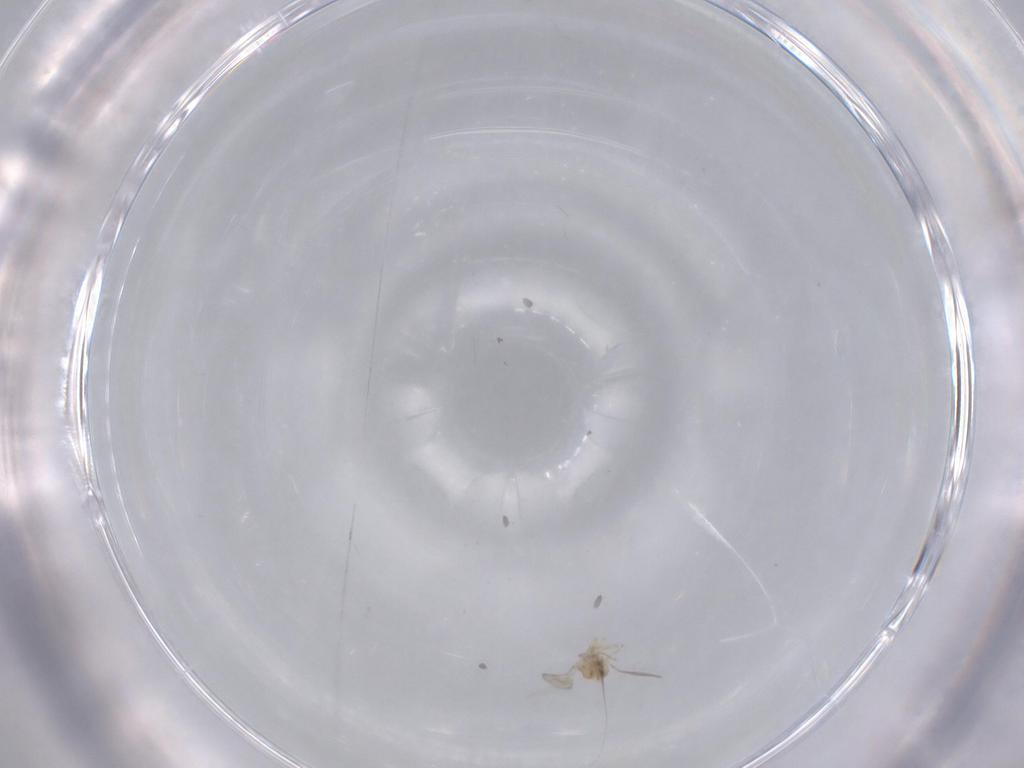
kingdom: Animalia
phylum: Arthropoda
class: Insecta
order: Hymenoptera
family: Aphelinidae
